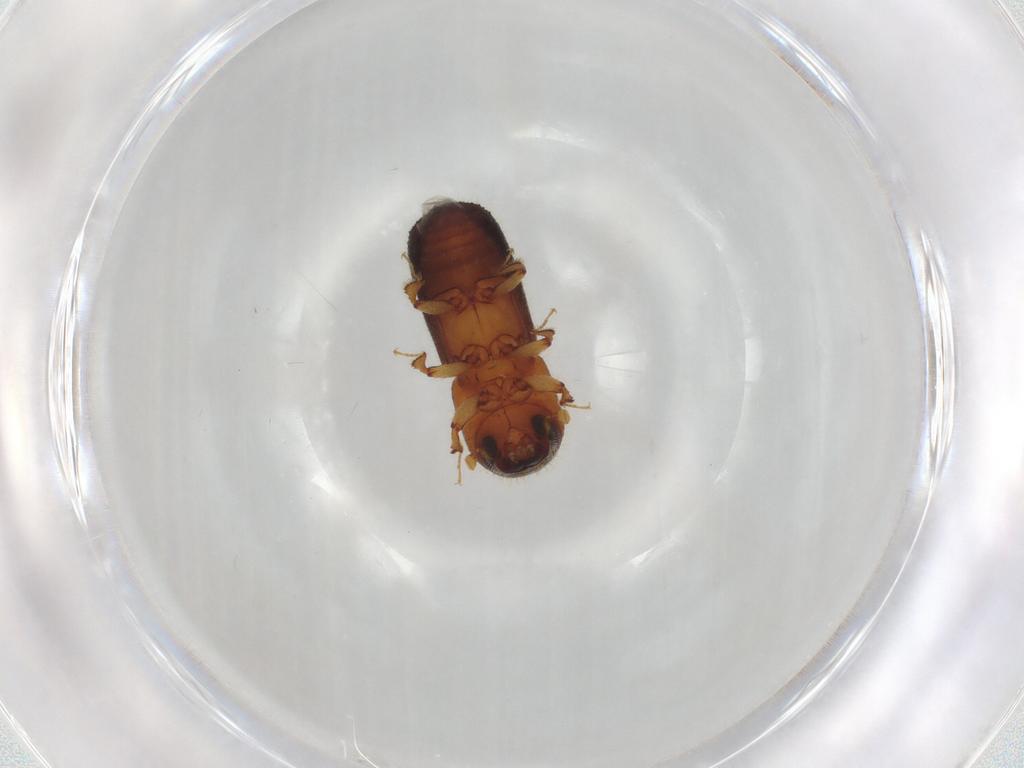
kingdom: Animalia
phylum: Arthropoda
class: Insecta
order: Coleoptera
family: Curculionidae
